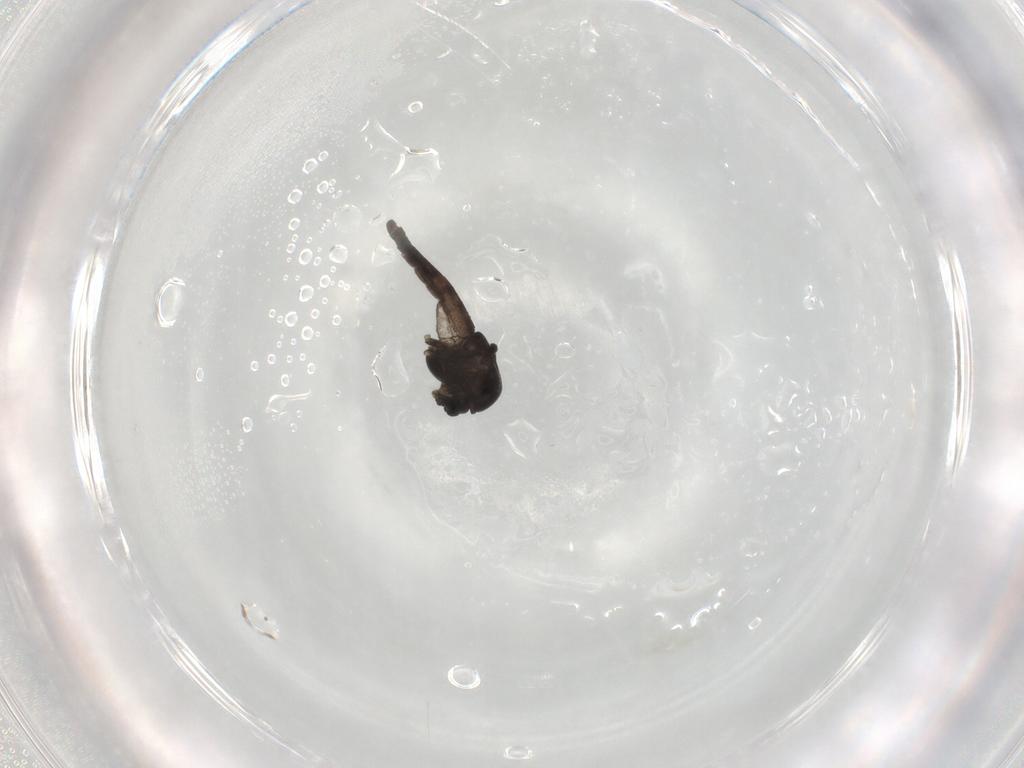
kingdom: Animalia
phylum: Arthropoda
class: Insecta
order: Diptera
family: Chironomidae
